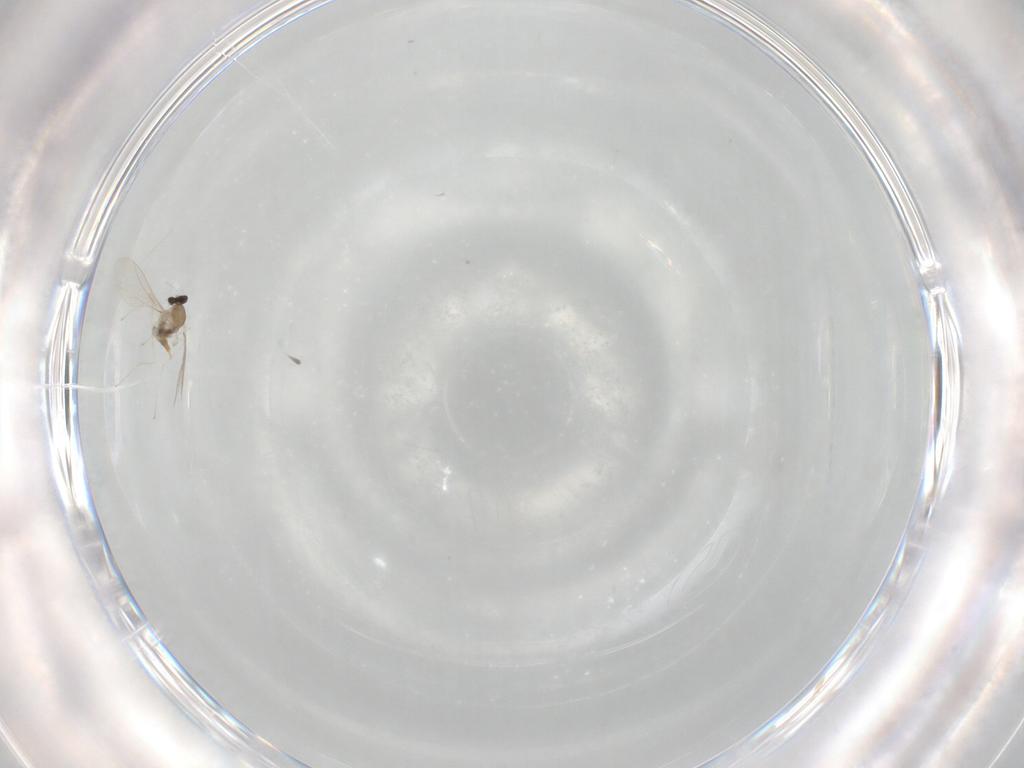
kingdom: Animalia
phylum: Arthropoda
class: Insecta
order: Diptera
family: Cecidomyiidae
